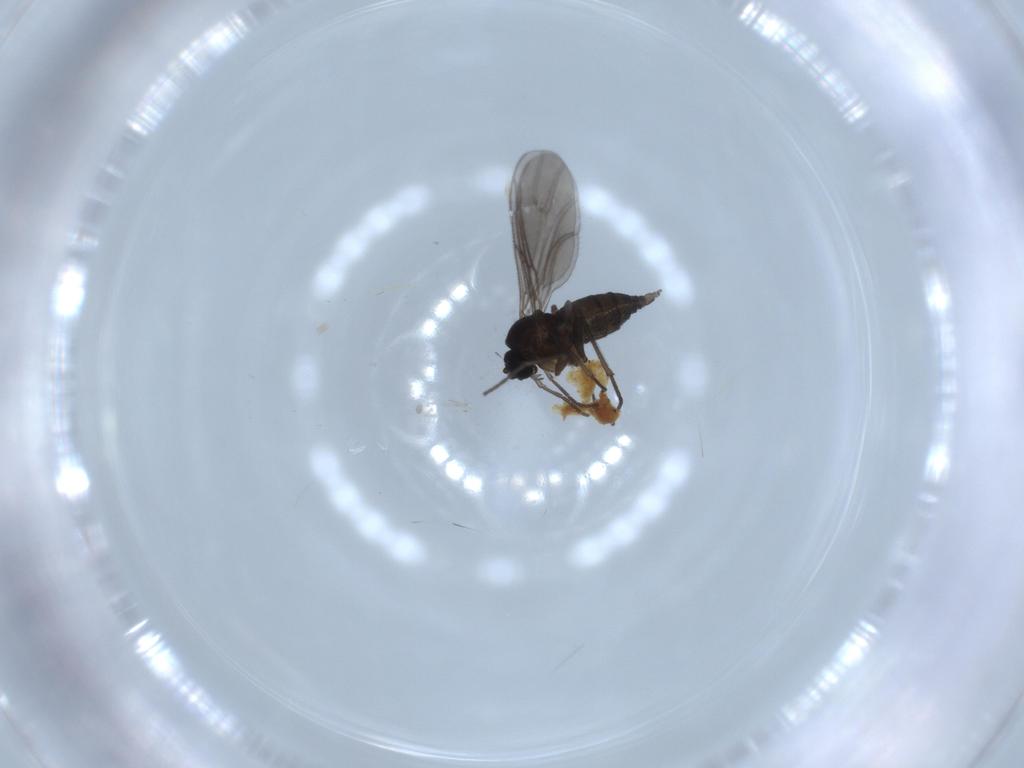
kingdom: Animalia
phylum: Arthropoda
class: Insecta
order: Diptera
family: Sciaridae
